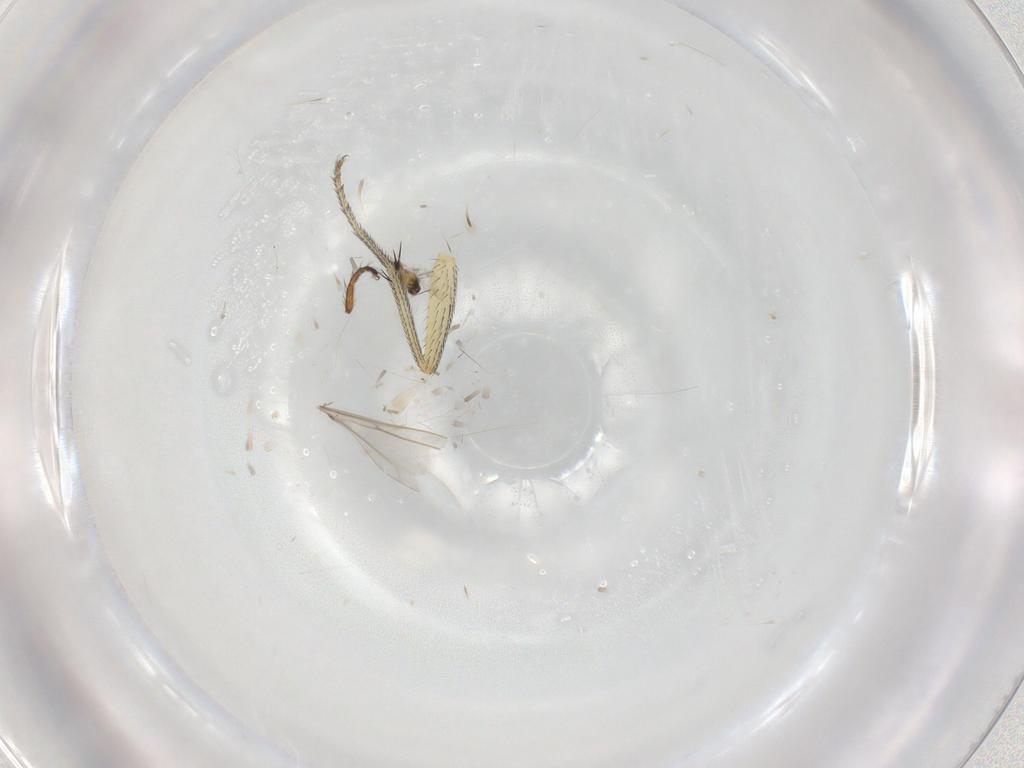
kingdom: Animalia
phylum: Arthropoda
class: Insecta
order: Hymenoptera
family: Mymaridae
